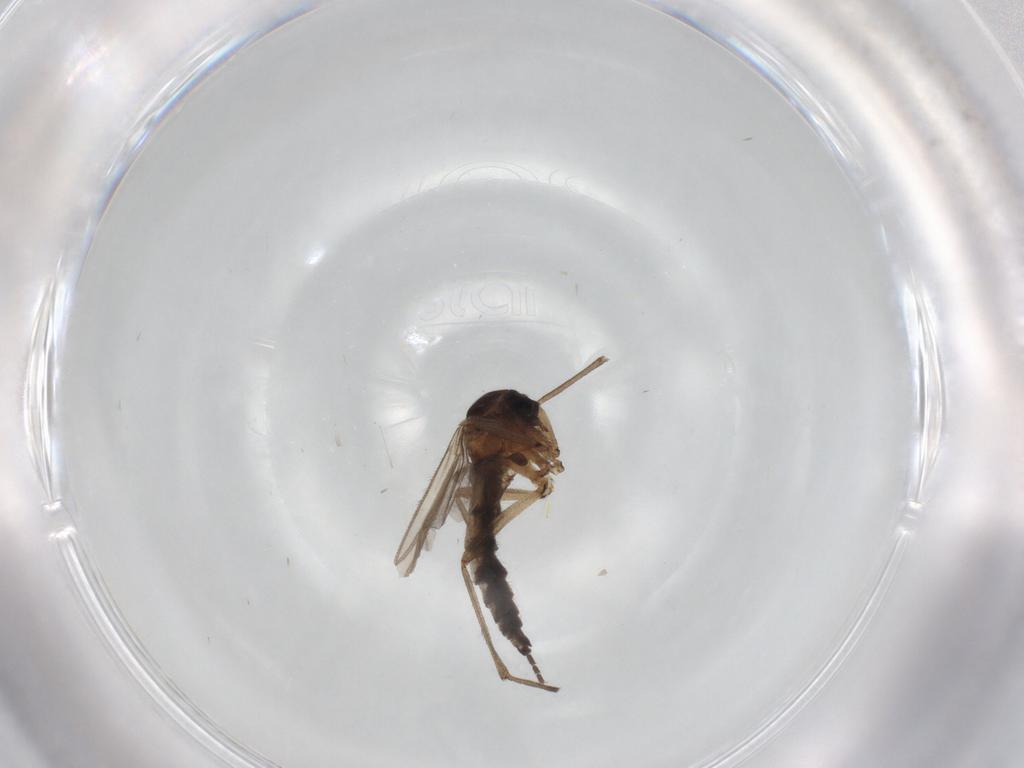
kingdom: Animalia
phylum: Arthropoda
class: Insecta
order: Diptera
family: Sciaridae
